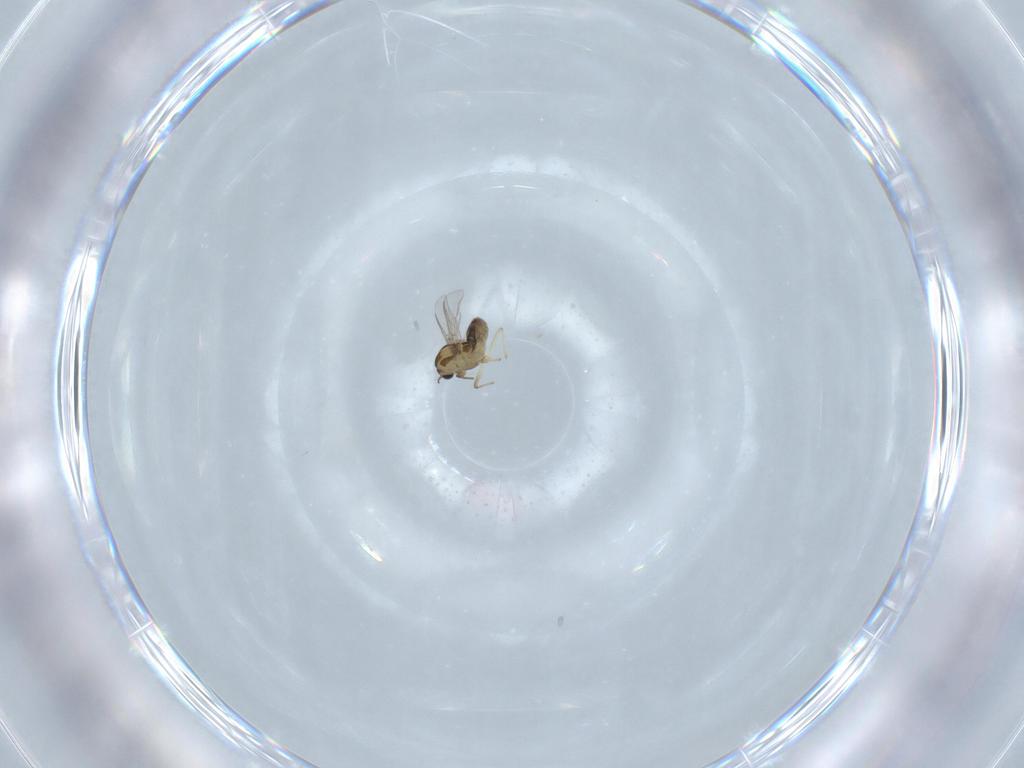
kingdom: Animalia
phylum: Arthropoda
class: Insecta
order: Diptera
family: Chironomidae
